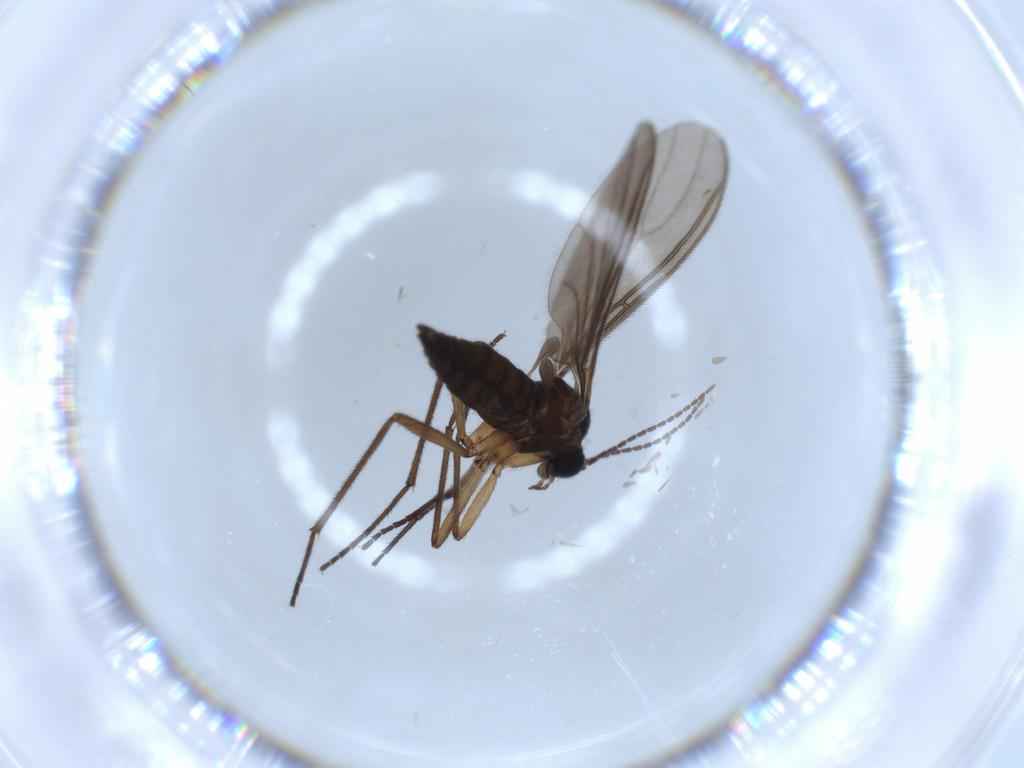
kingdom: Animalia
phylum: Arthropoda
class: Insecta
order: Diptera
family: Sciaridae
